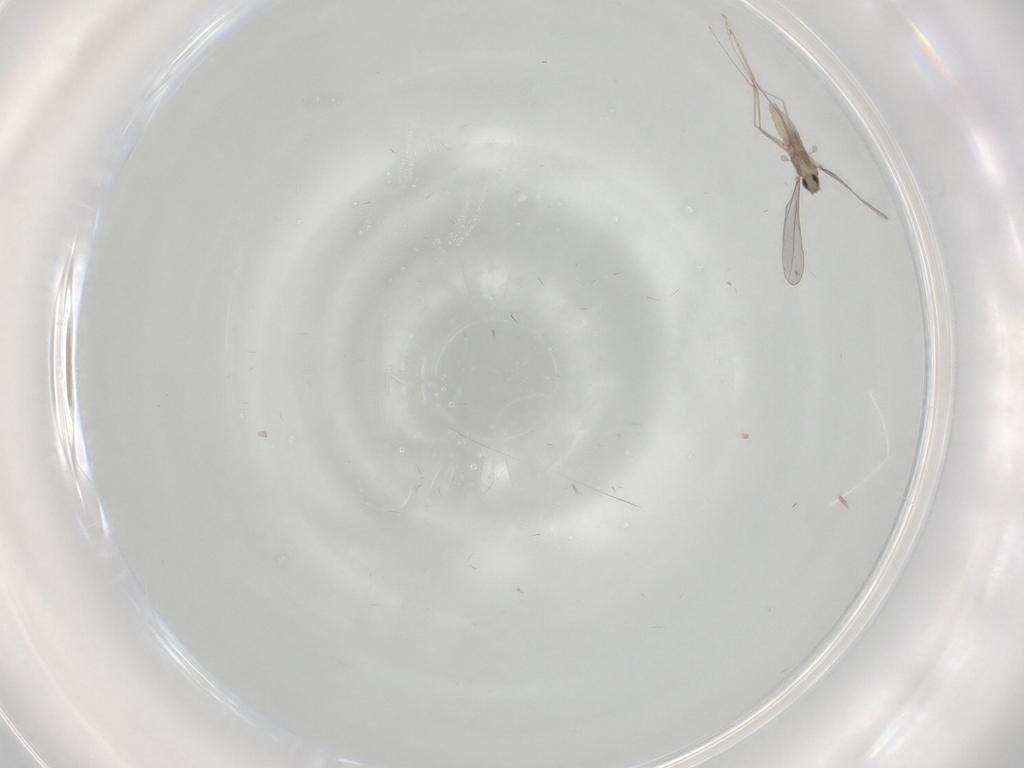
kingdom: Animalia
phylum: Arthropoda
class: Insecta
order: Diptera
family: Cecidomyiidae
